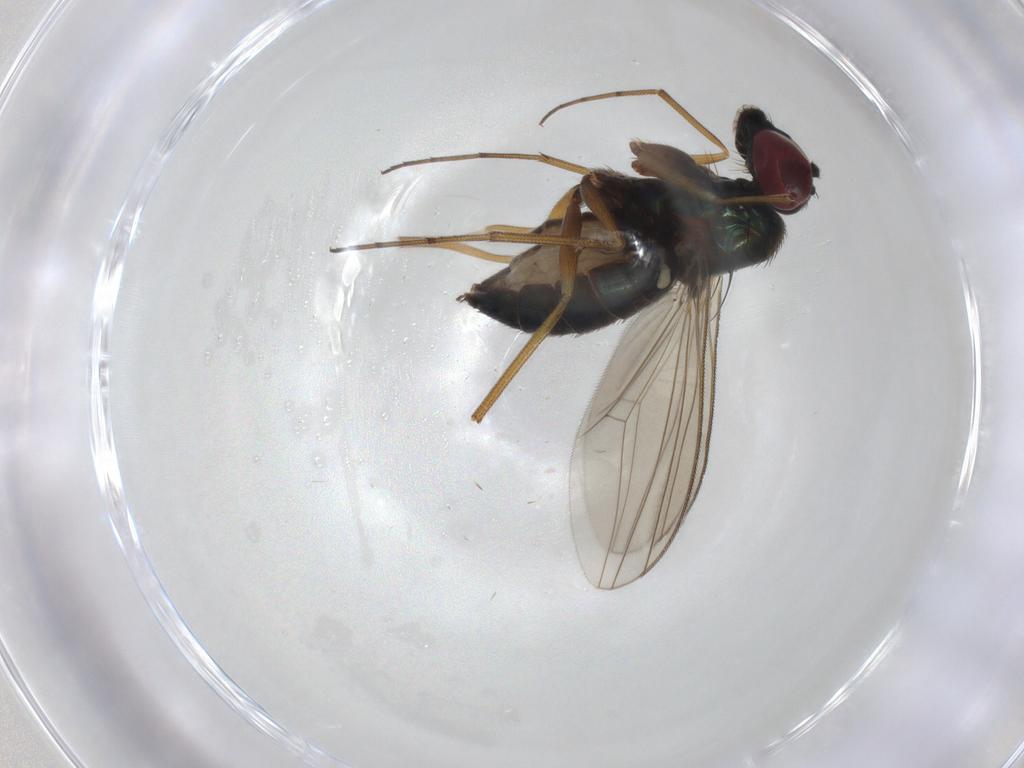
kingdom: Animalia
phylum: Arthropoda
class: Insecta
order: Diptera
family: Dolichopodidae
